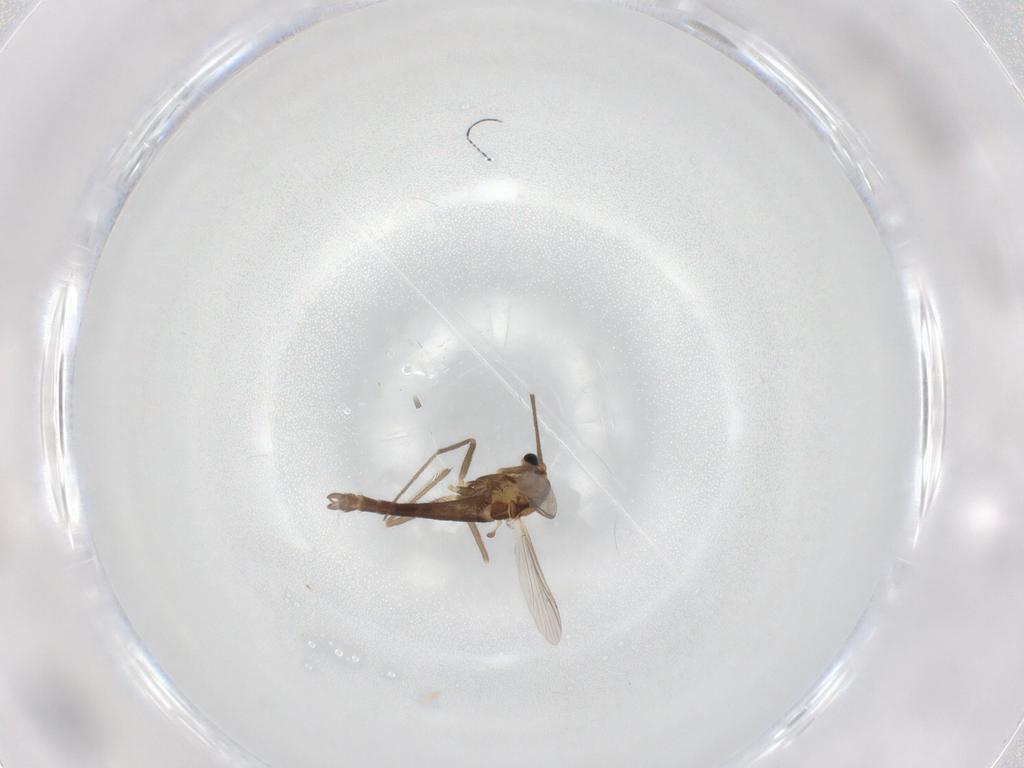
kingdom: Animalia
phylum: Arthropoda
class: Insecta
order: Diptera
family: Chironomidae
